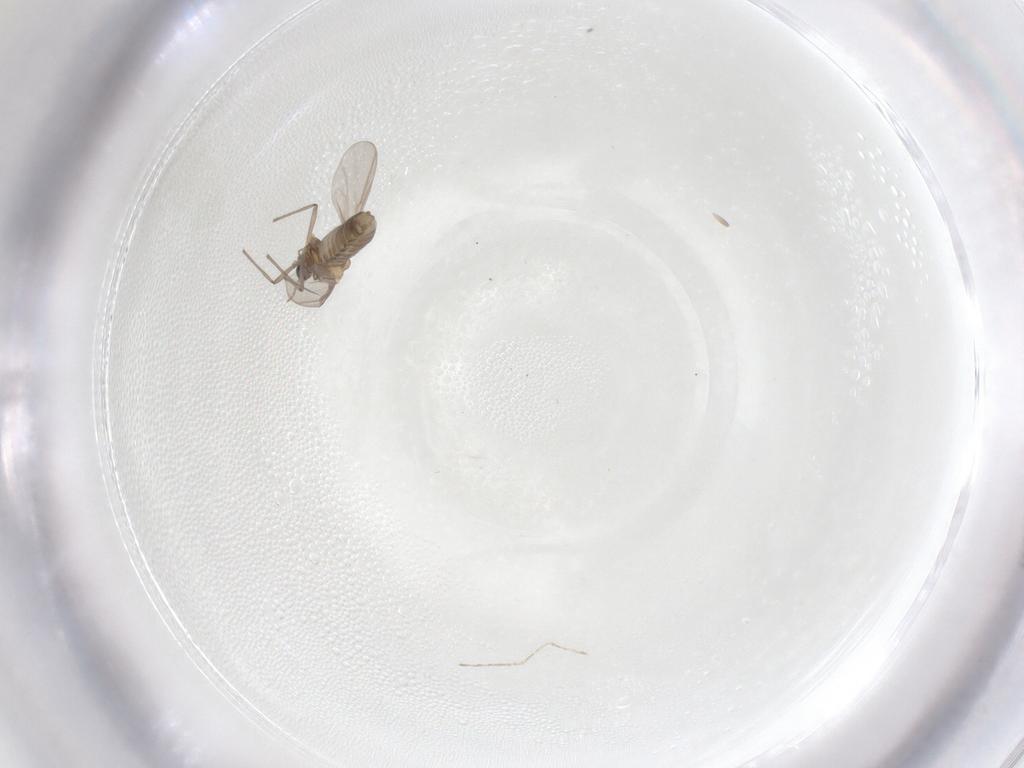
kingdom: Animalia
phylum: Arthropoda
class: Insecta
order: Diptera
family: Cecidomyiidae
